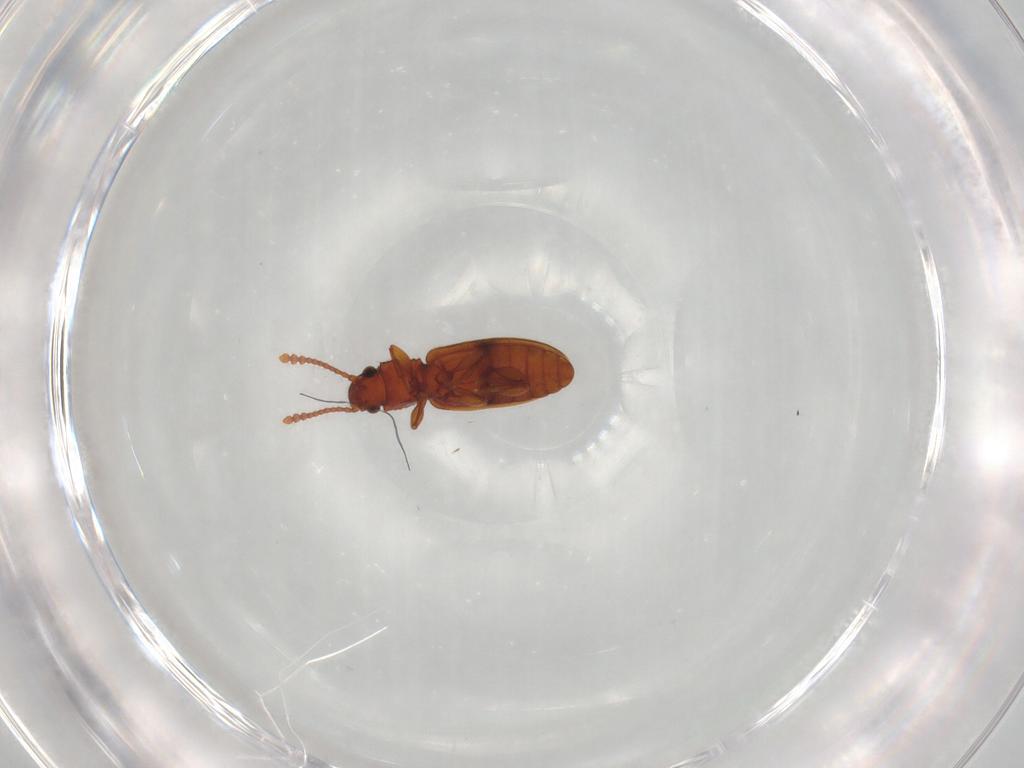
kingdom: Animalia
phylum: Arthropoda
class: Insecta
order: Coleoptera
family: Silvanidae
